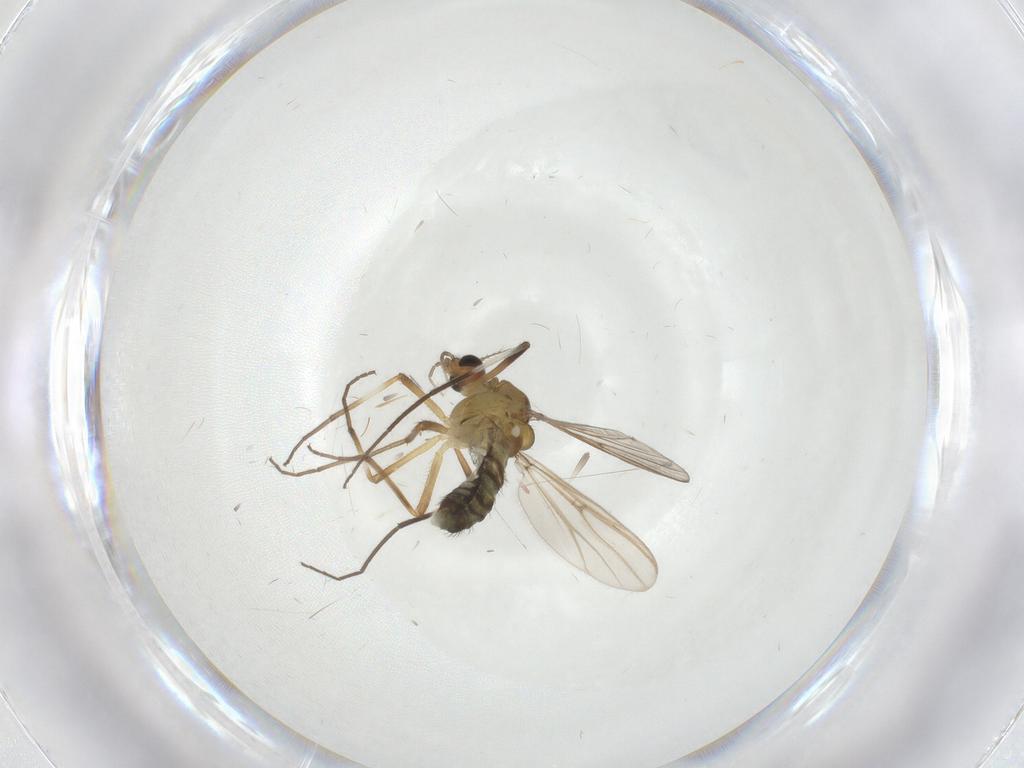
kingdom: Animalia
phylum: Arthropoda
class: Insecta
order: Diptera
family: Chironomidae
